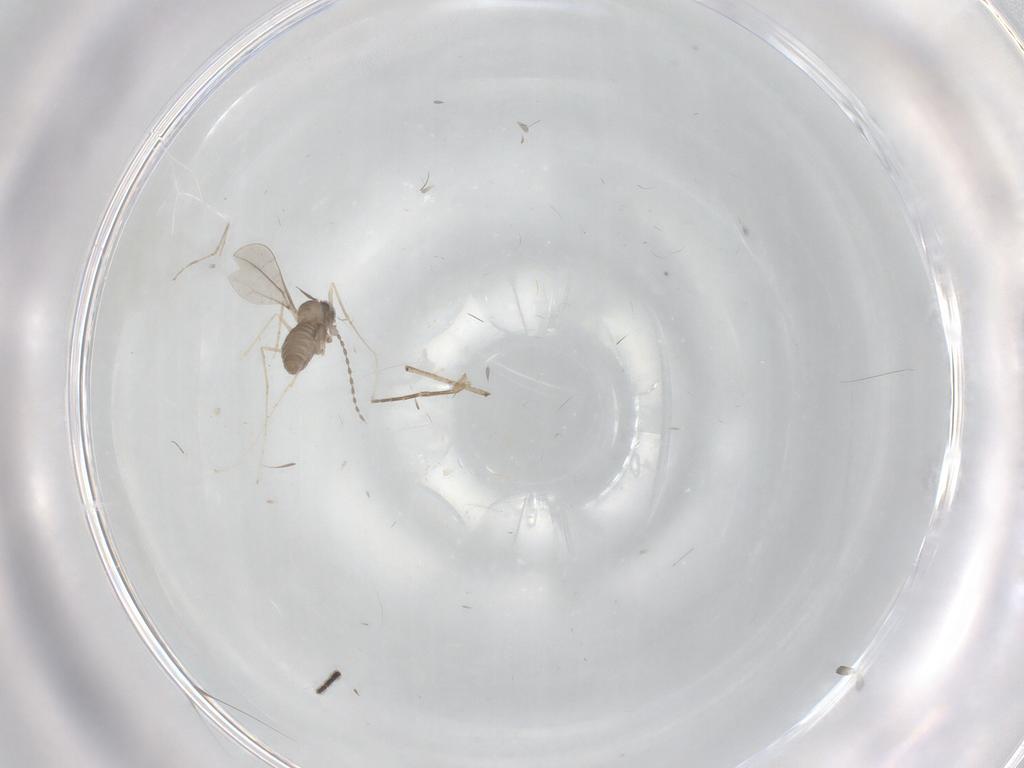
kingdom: Animalia
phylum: Arthropoda
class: Insecta
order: Diptera
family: Cecidomyiidae
